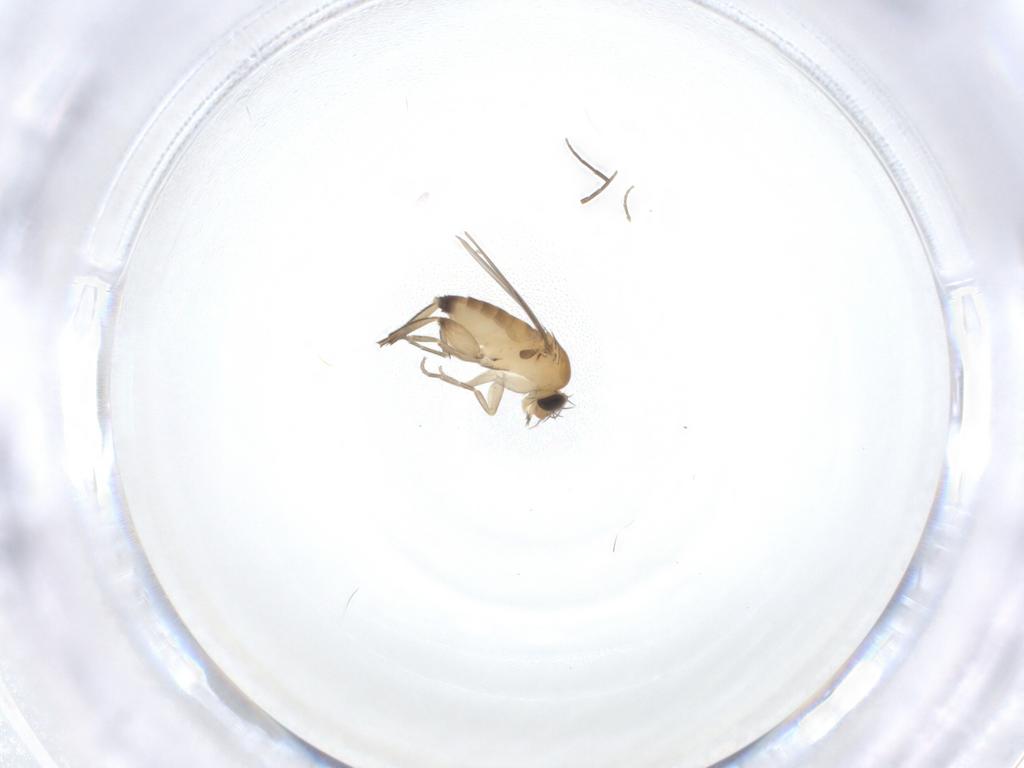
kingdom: Animalia
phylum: Arthropoda
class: Insecta
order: Diptera
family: Phoridae
